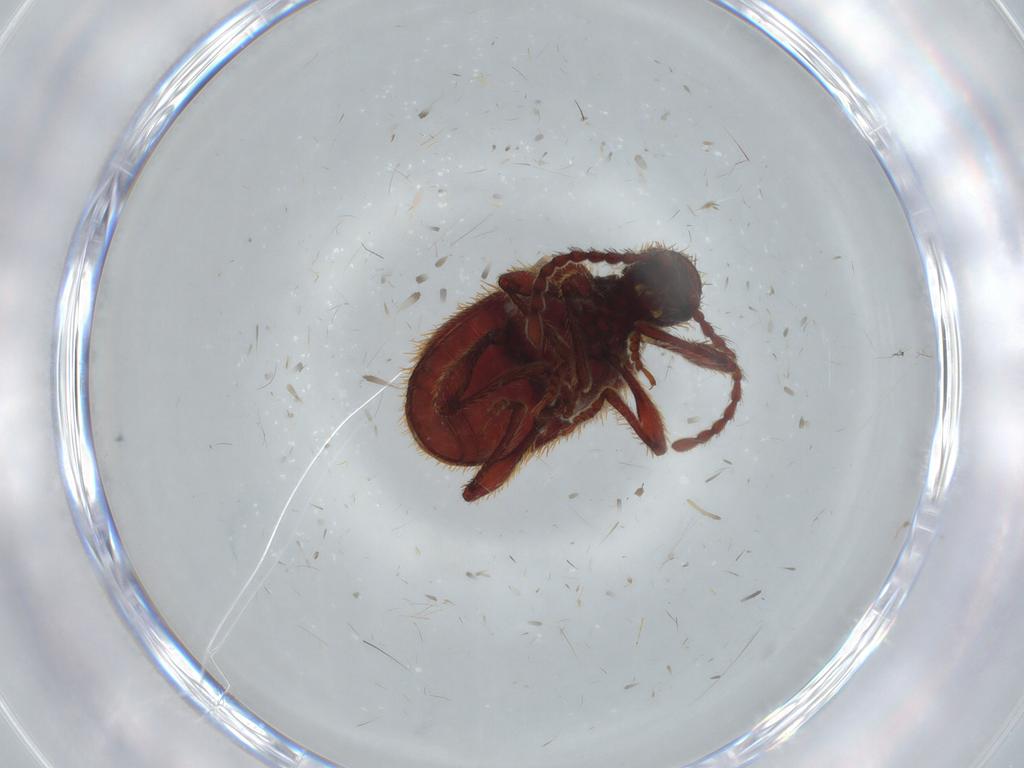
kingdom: Animalia
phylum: Arthropoda
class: Insecta
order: Coleoptera
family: Ptinidae
